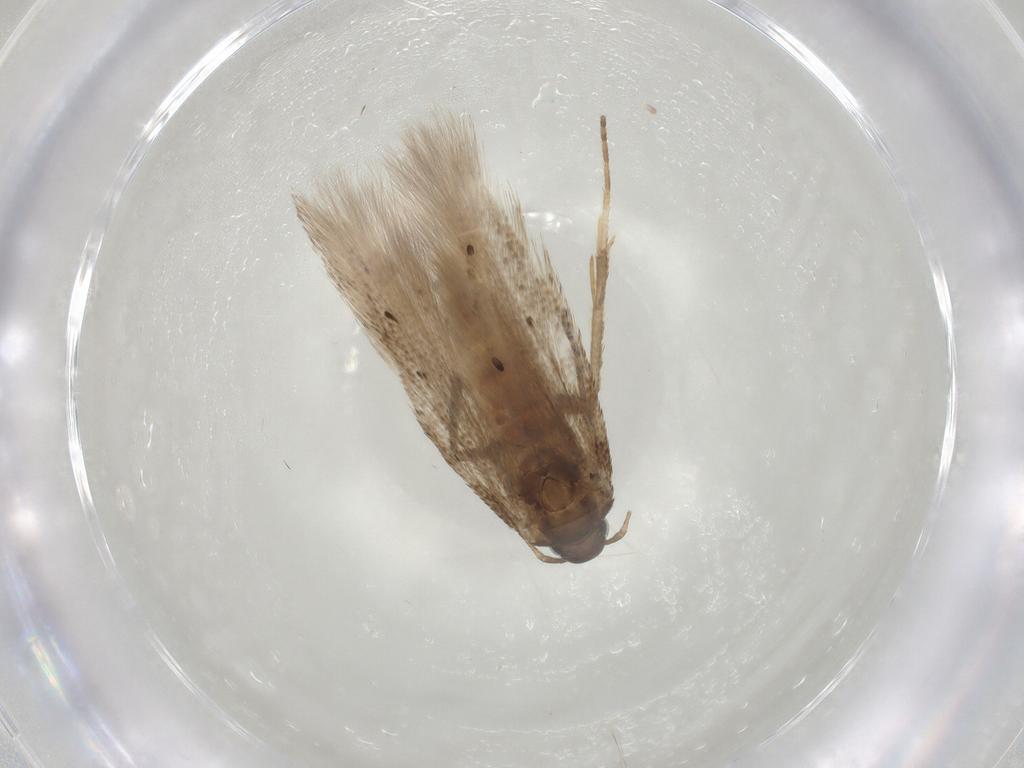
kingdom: Animalia
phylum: Arthropoda
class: Insecta
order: Lepidoptera
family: Gelechiidae
